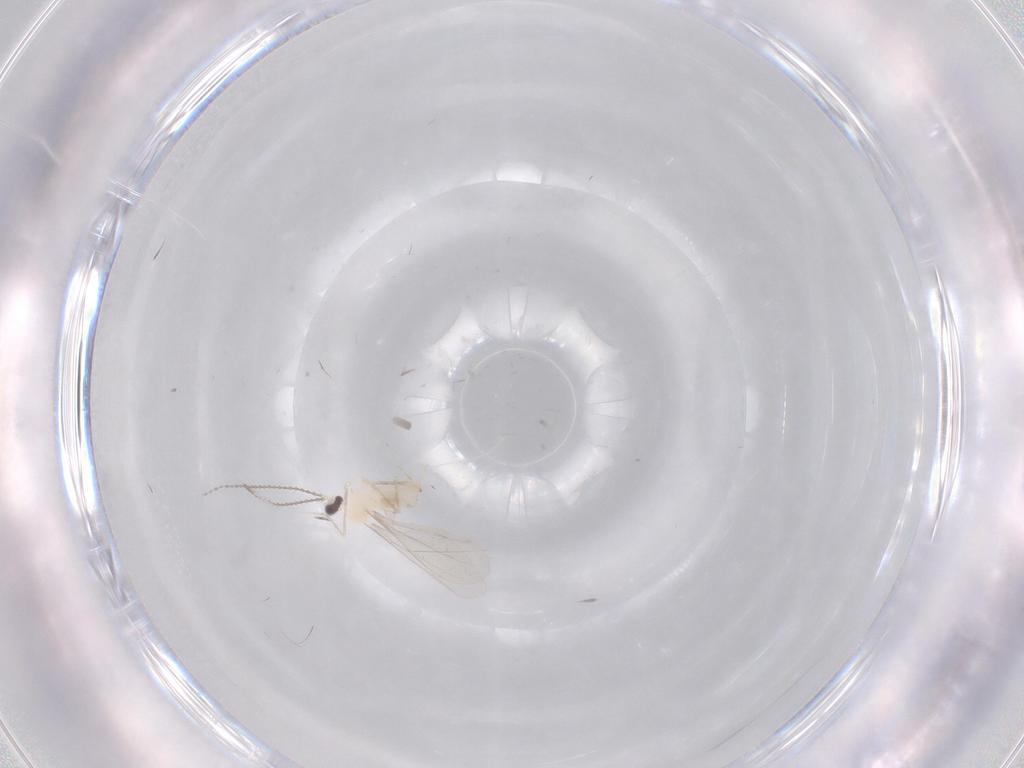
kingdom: Animalia
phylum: Arthropoda
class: Insecta
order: Diptera
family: Cecidomyiidae
